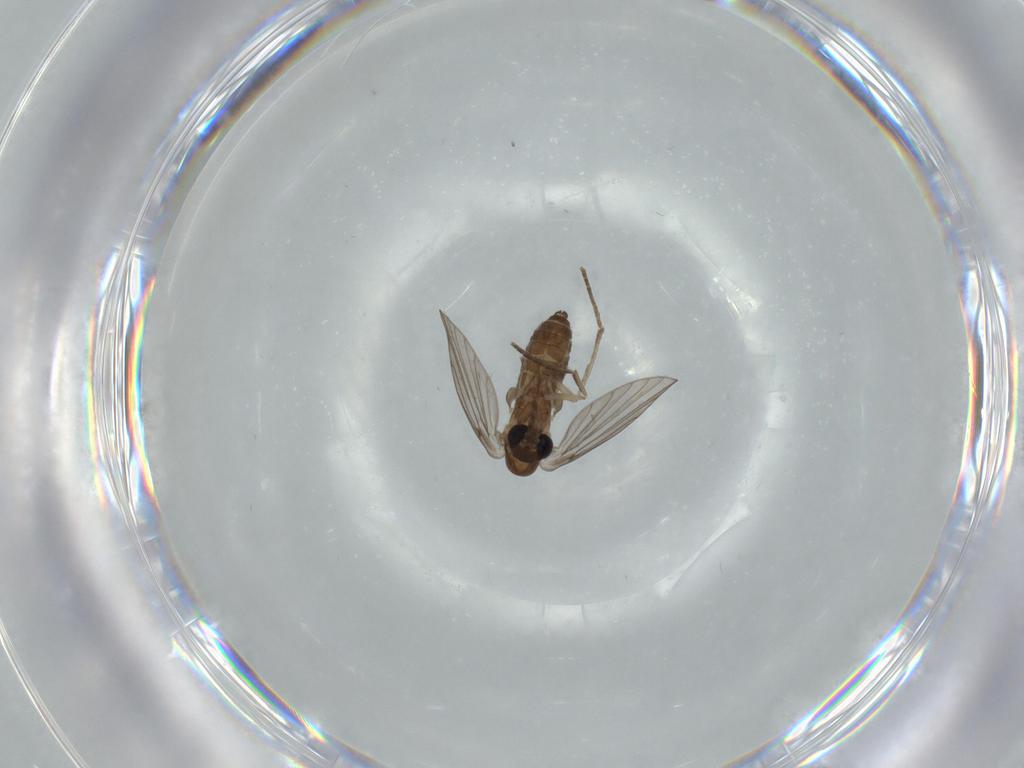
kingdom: Animalia
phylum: Arthropoda
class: Insecta
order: Diptera
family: Psychodidae
